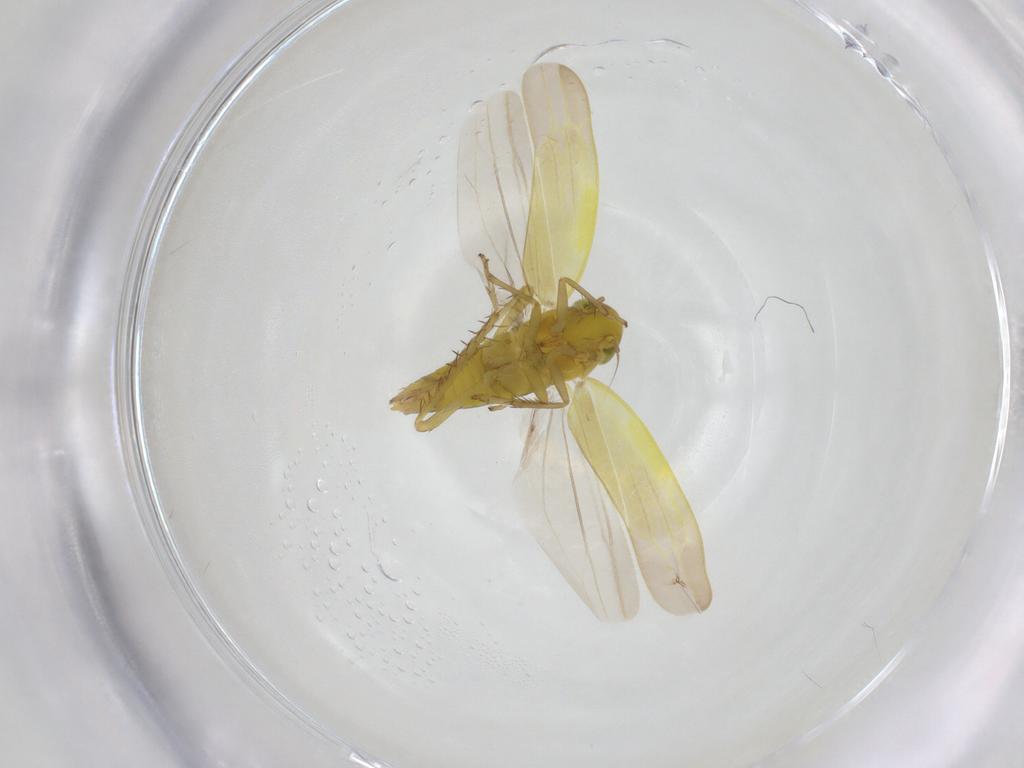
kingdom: Animalia
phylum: Arthropoda
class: Insecta
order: Hemiptera
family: Cicadellidae
